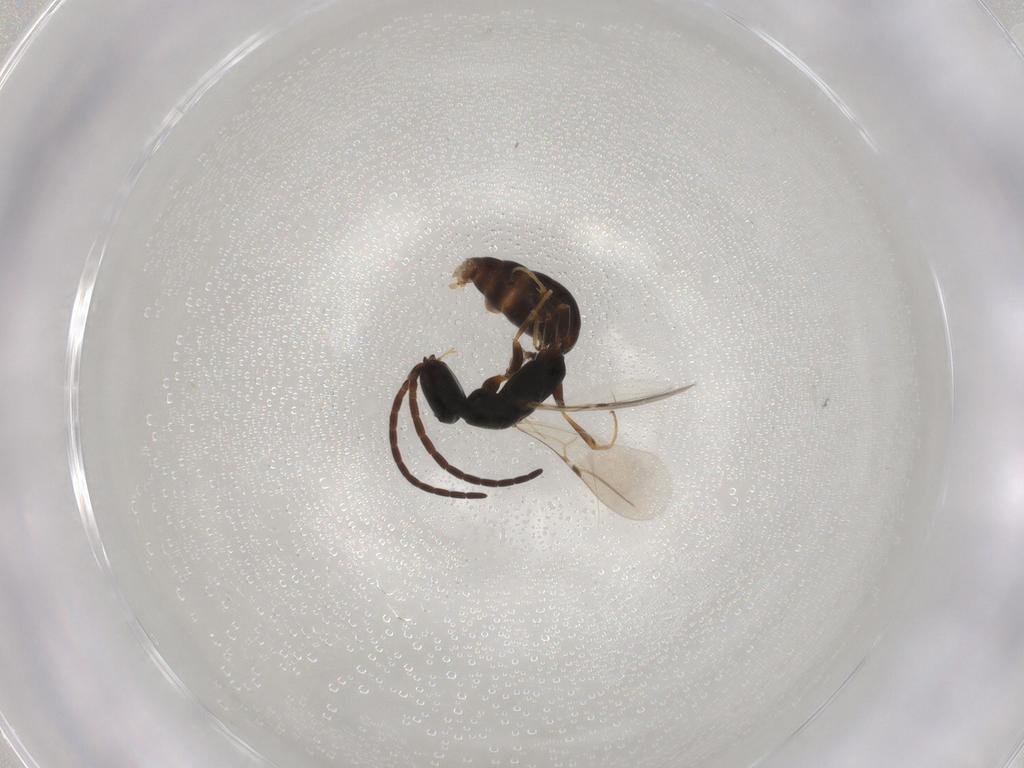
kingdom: Animalia
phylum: Arthropoda
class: Insecta
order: Hymenoptera
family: Bethylidae
